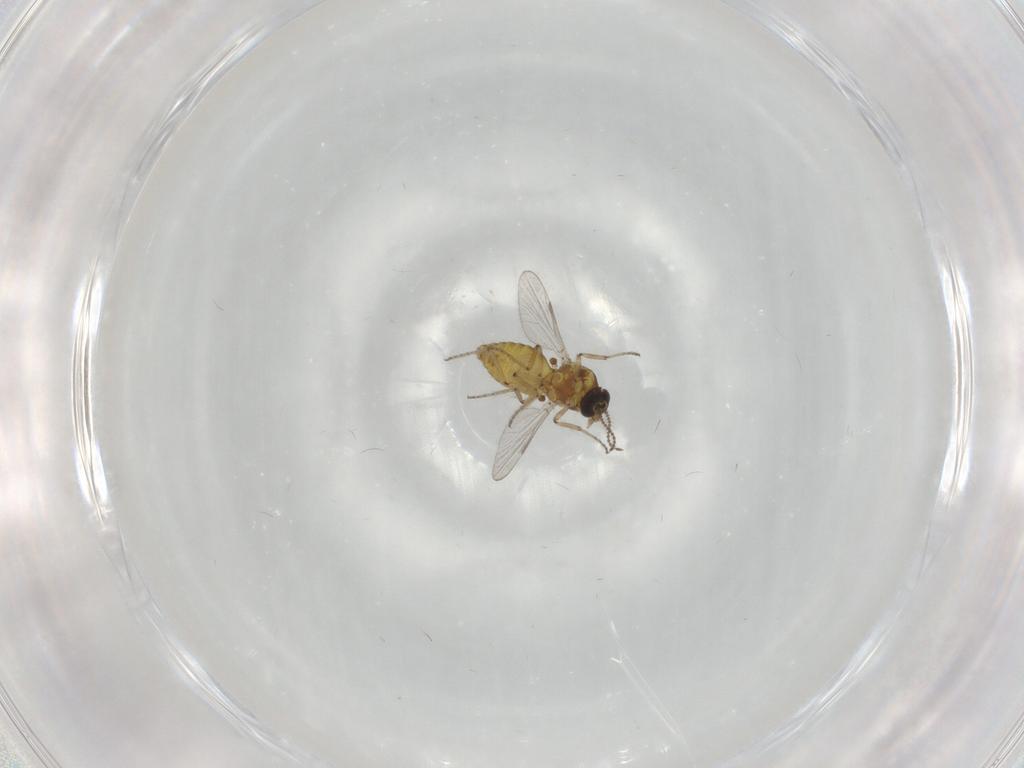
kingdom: Animalia
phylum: Arthropoda
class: Insecta
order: Diptera
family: Ceratopogonidae
